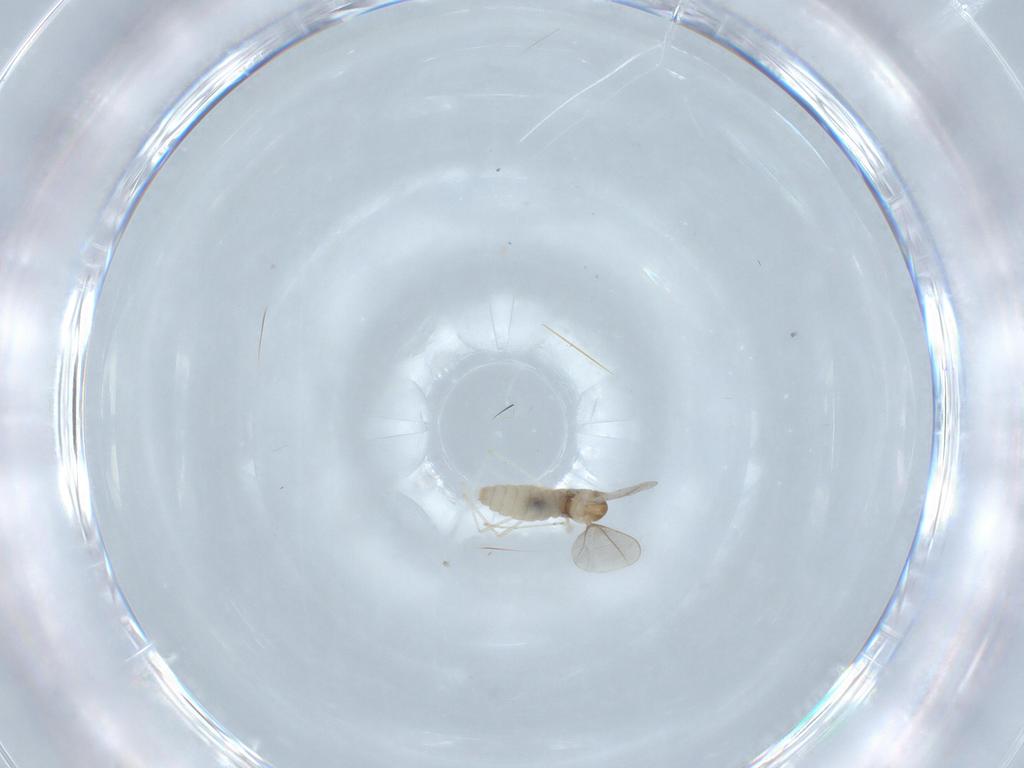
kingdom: Animalia
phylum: Arthropoda
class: Insecta
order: Diptera
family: Cecidomyiidae
